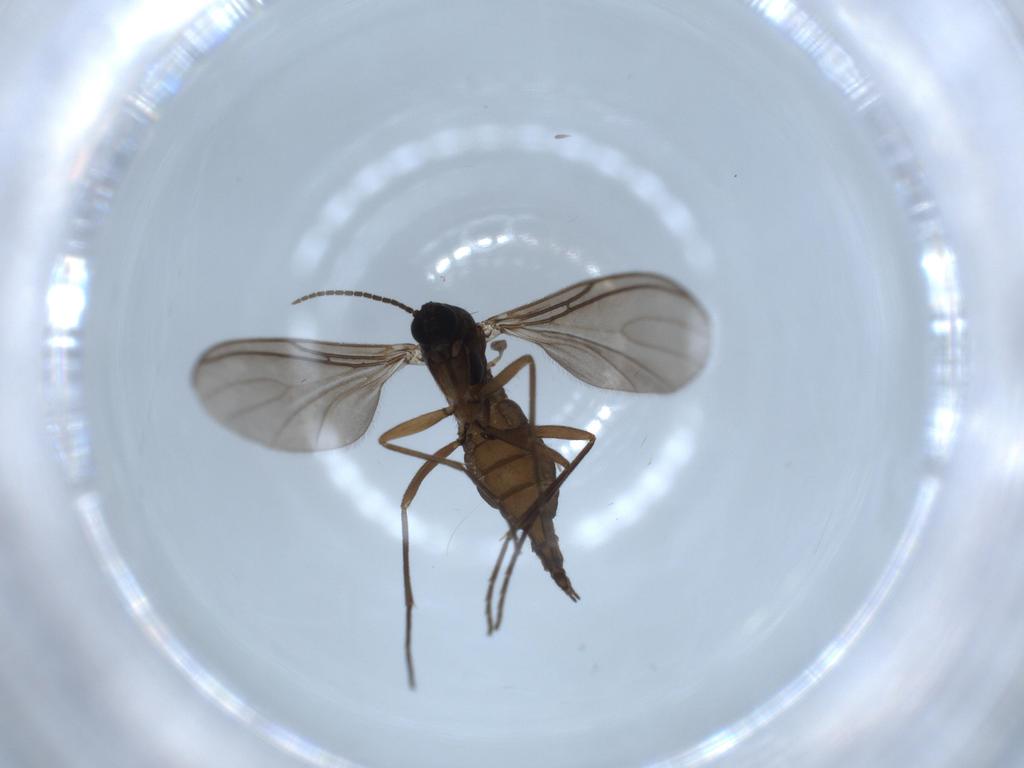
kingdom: Animalia
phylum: Arthropoda
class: Insecta
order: Diptera
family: Sciaridae
